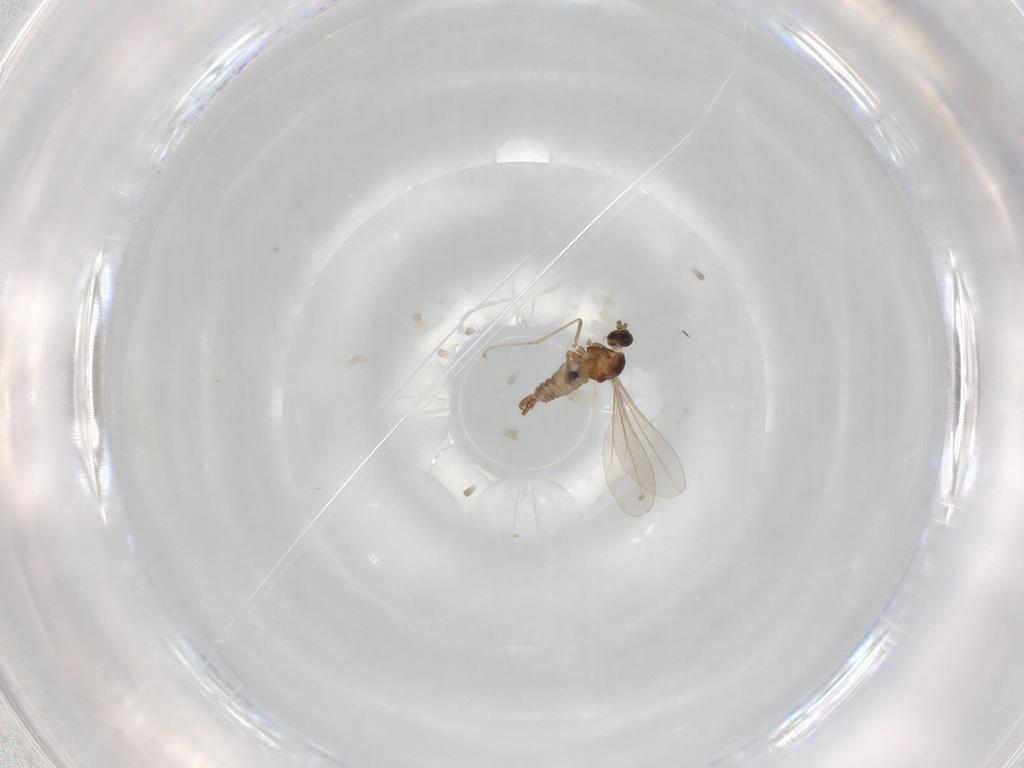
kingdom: Animalia
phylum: Arthropoda
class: Insecta
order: Diptera
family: Cecidomyiidae
